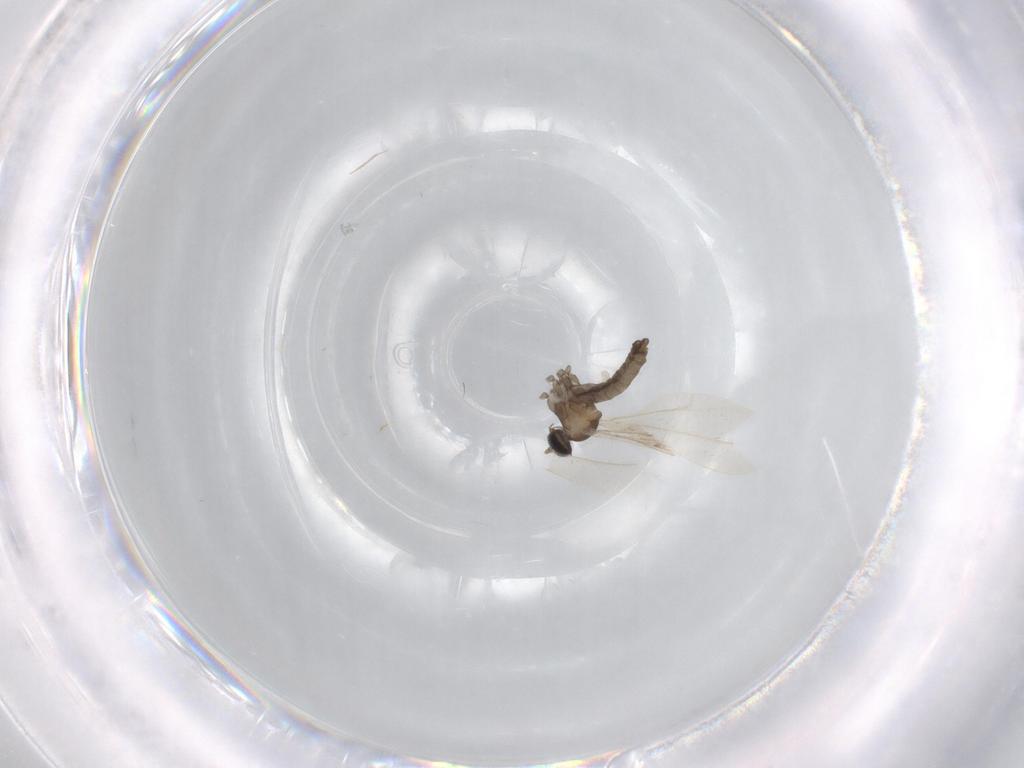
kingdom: Animalia
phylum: Arthropoda
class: Insecta
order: Diptera
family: Cecidomyiidae
